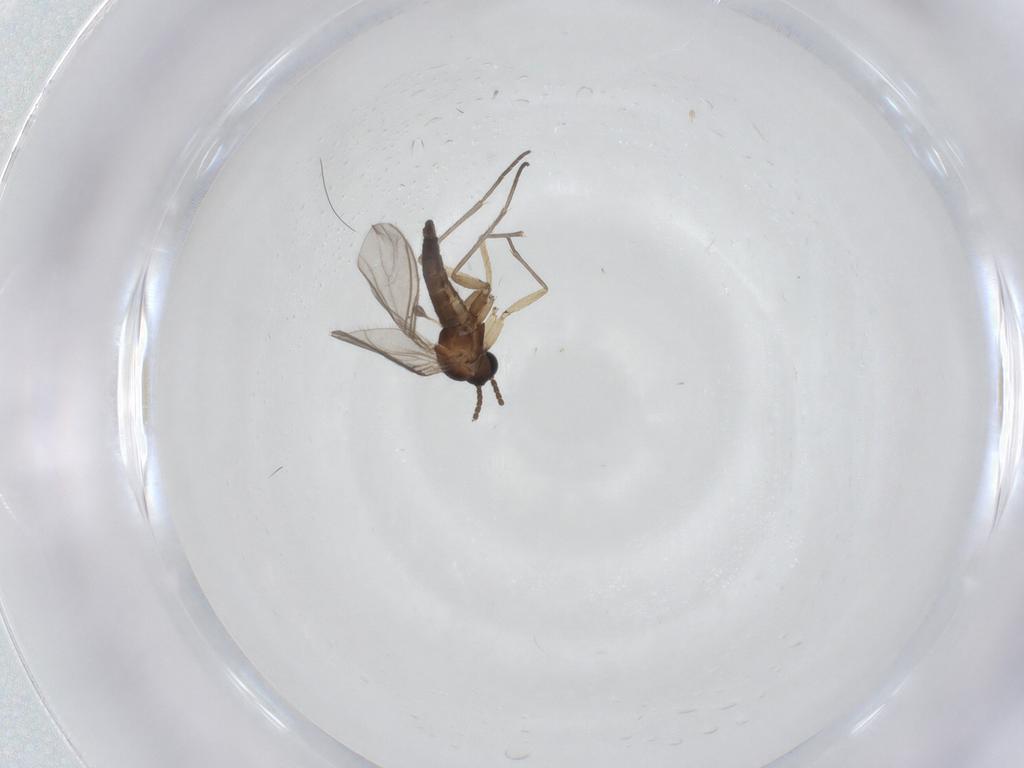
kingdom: Animalia
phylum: Arthropoda
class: Insecta
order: Diptera
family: Sciaridae
